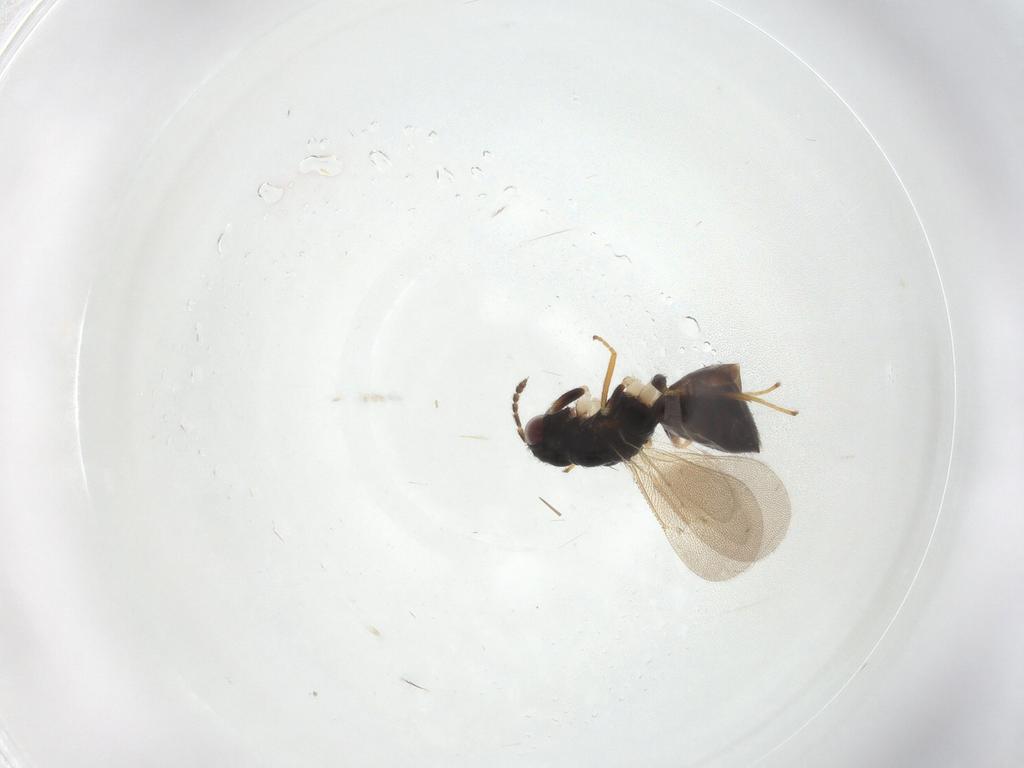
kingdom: Animalia
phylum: Arthropoda
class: Insecta
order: Hymenoptera
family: Eulophidae
